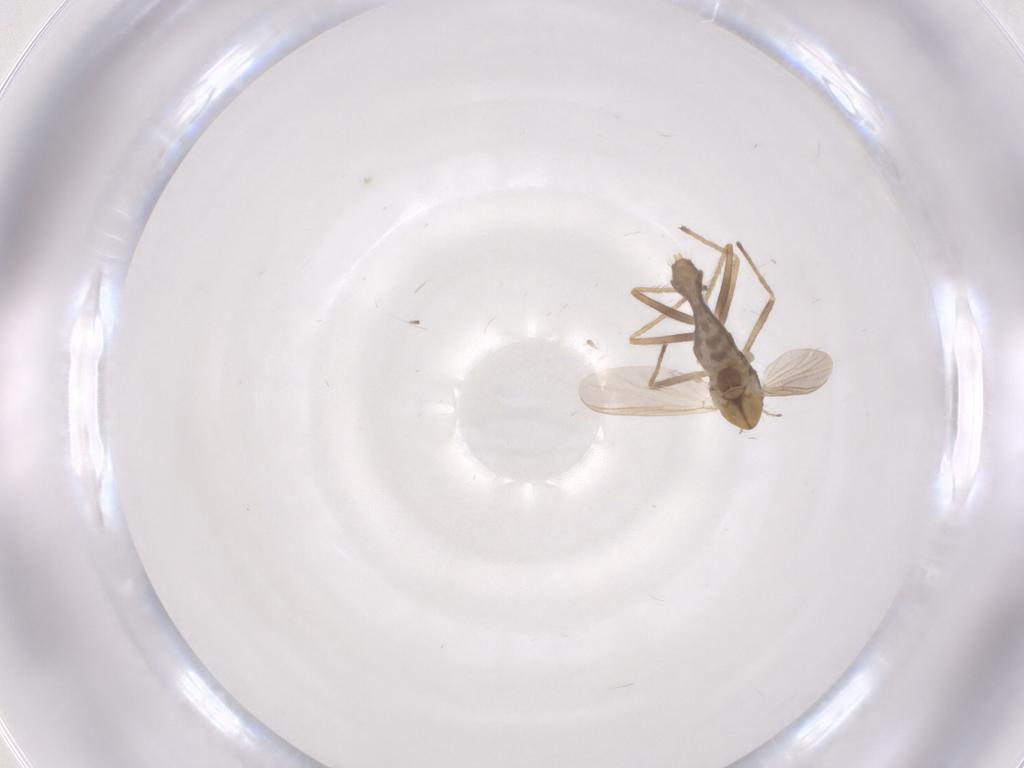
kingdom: Animalia
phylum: Arthropoda
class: Insecta
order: Diptera
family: Chironomidae
